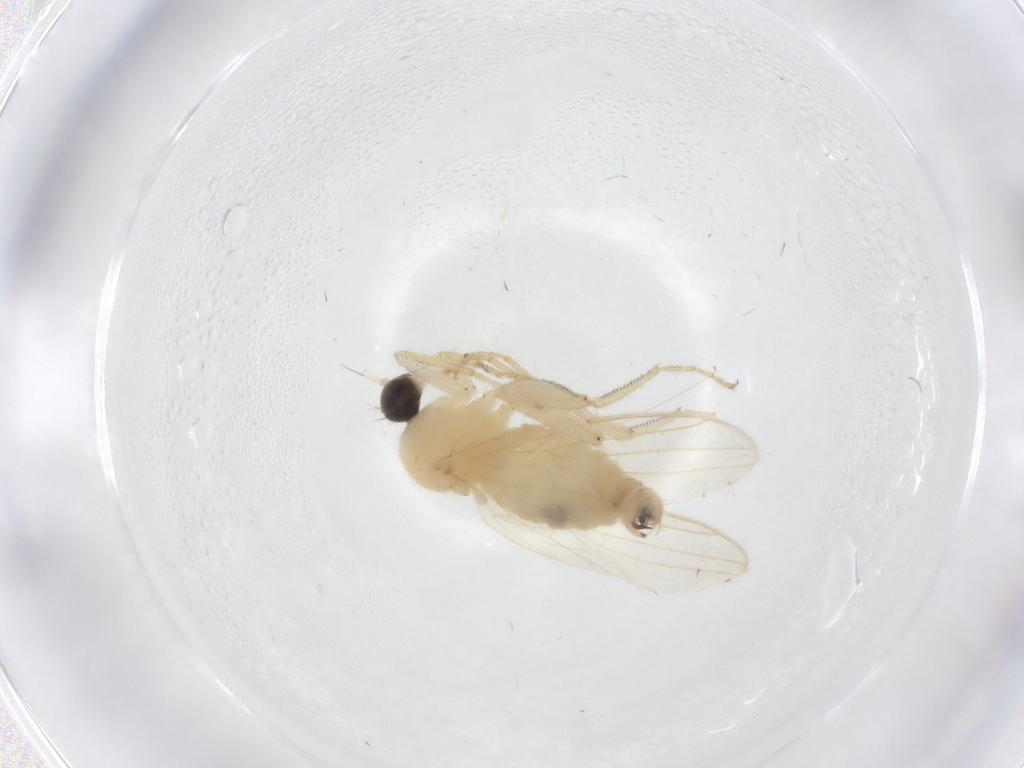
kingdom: Animalia
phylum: Arthropoda
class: Insecta
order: Diptera
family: Hybotidae
